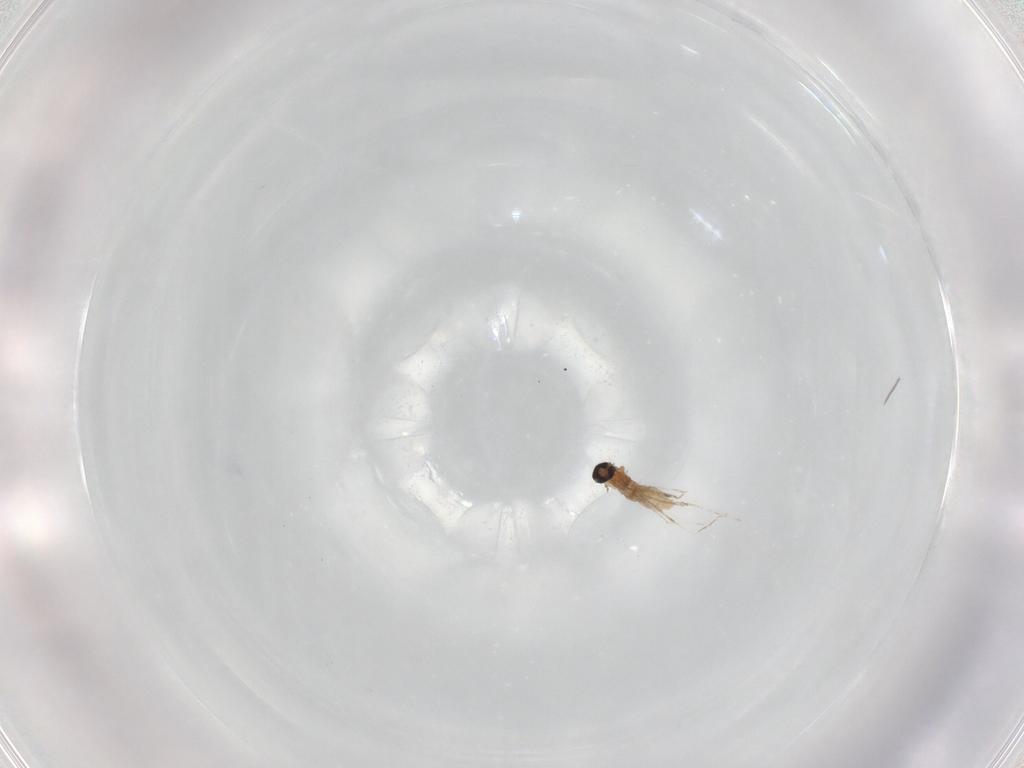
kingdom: Animalia
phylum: Arthropoda
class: Insecta
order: Diptera
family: Cecidomyiidae
